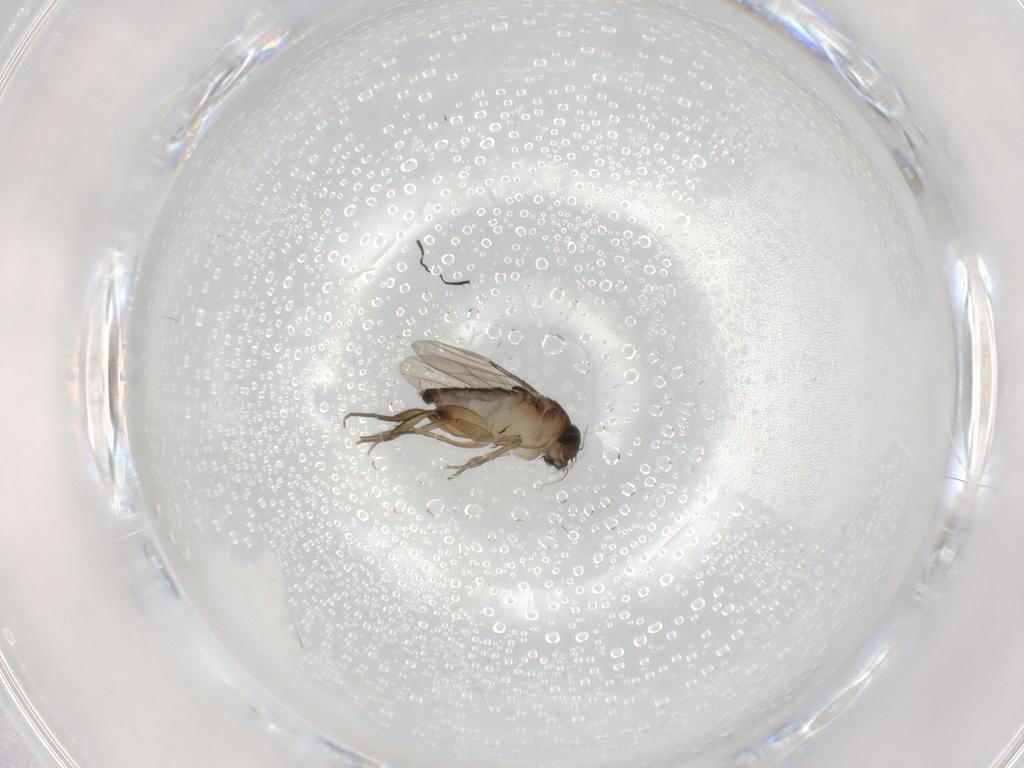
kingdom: Animalia
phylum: Arthropoda
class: Insecta
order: Diptera
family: Phoridae
